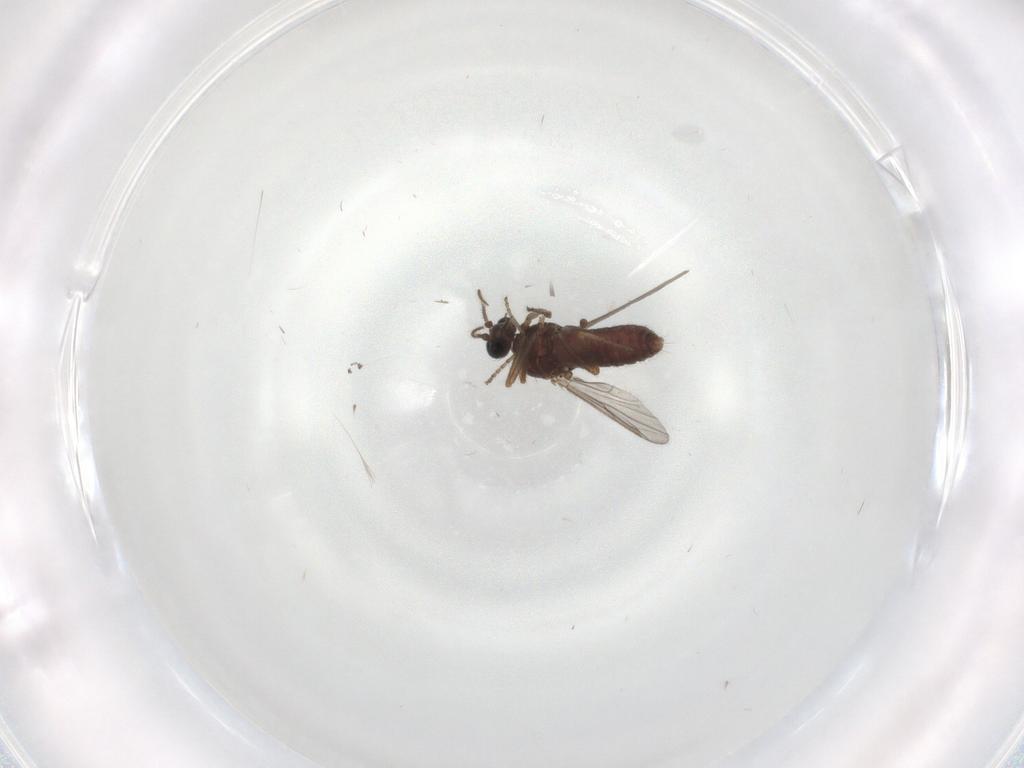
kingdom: Animalia
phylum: Arthropoda
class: Insecta
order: Diptera
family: Ceratopogonidae
